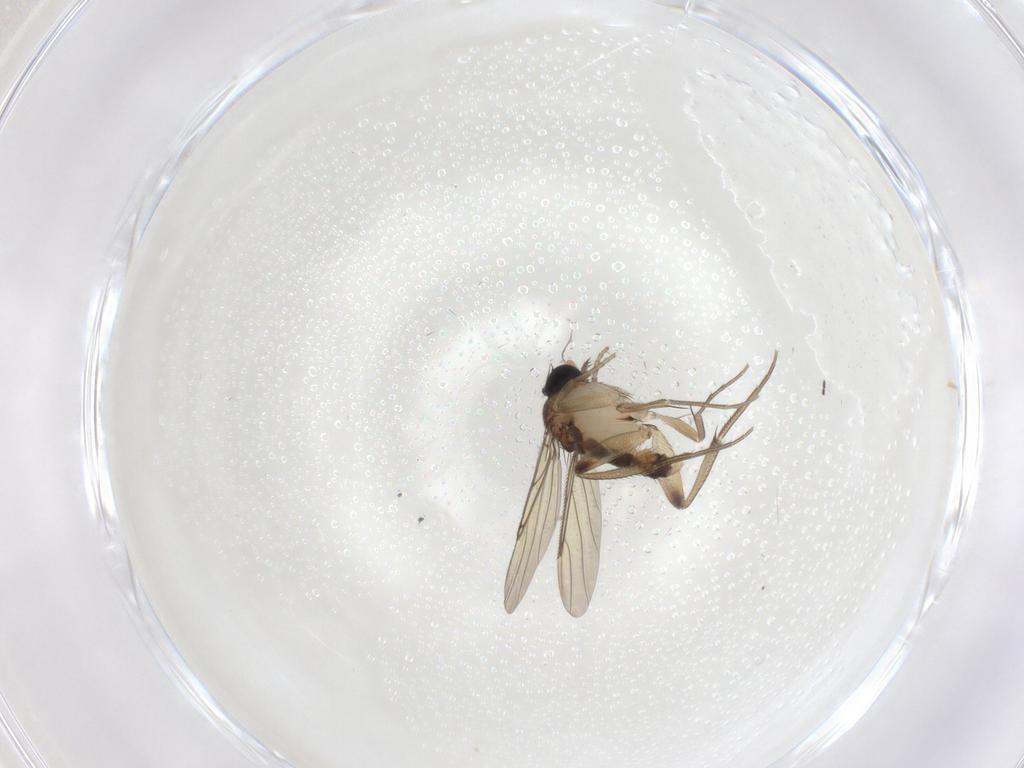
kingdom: Animalia
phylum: Arthropoda
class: Insecta
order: Diptera
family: Phoridae
